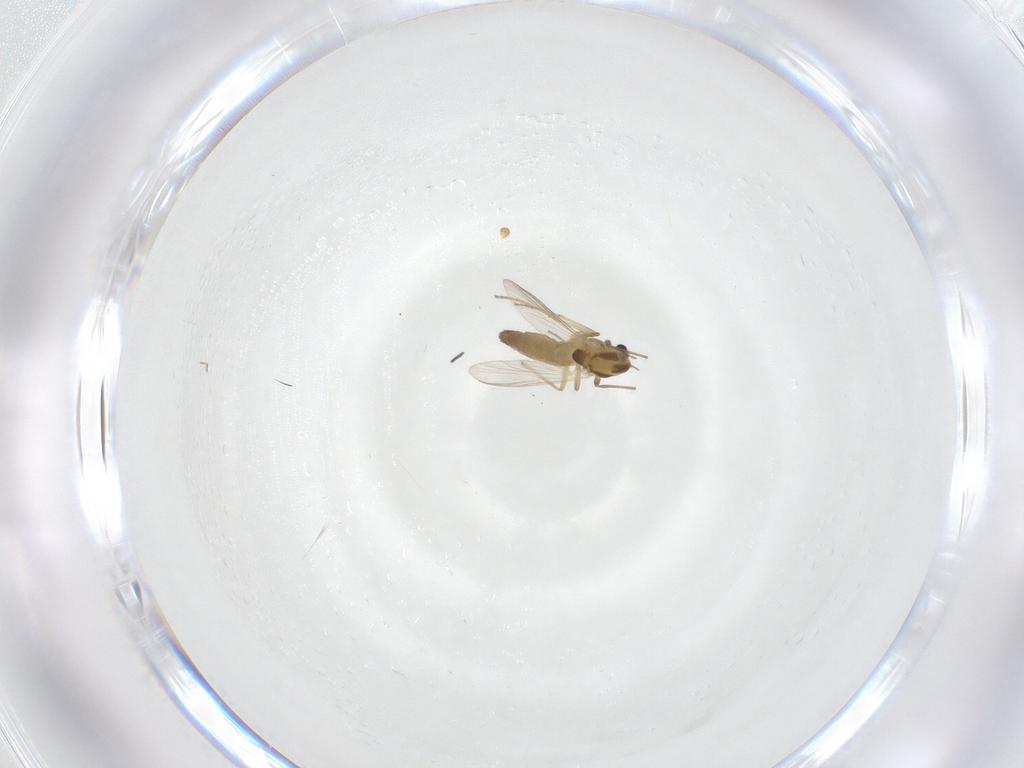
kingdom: Animalia
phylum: Arthropoda
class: Insecta
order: Diptera
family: Mycetophilidae
